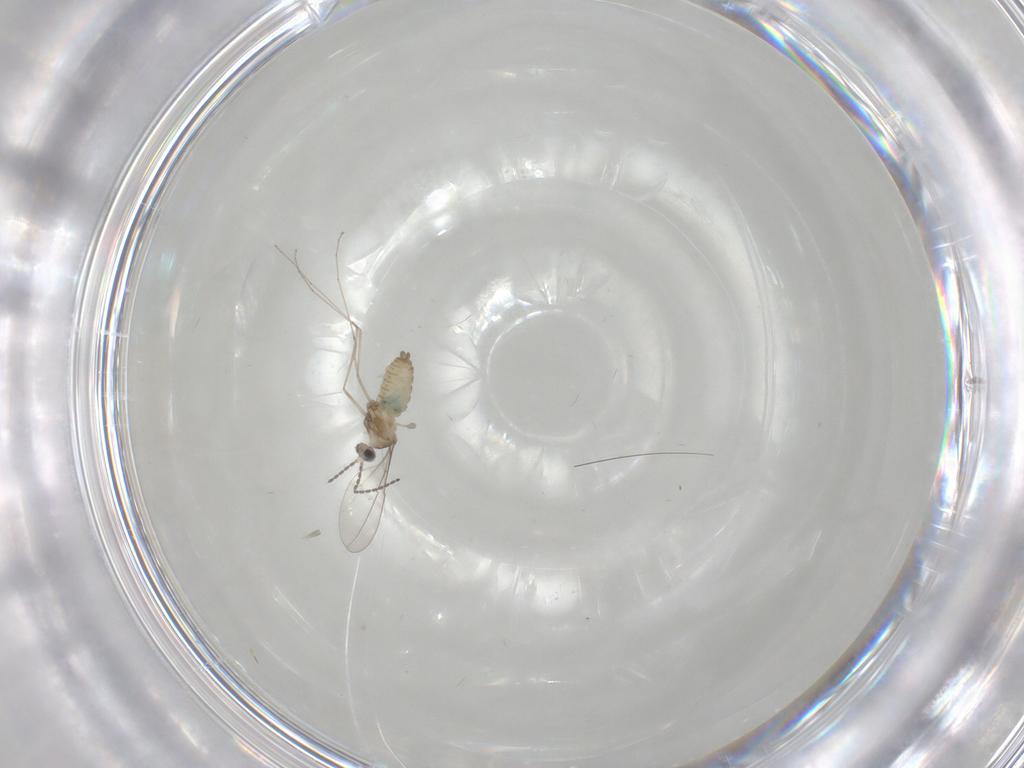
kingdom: Animalia
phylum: Arthropoda
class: Insecta
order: Diptera
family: Cecidomyiidae
